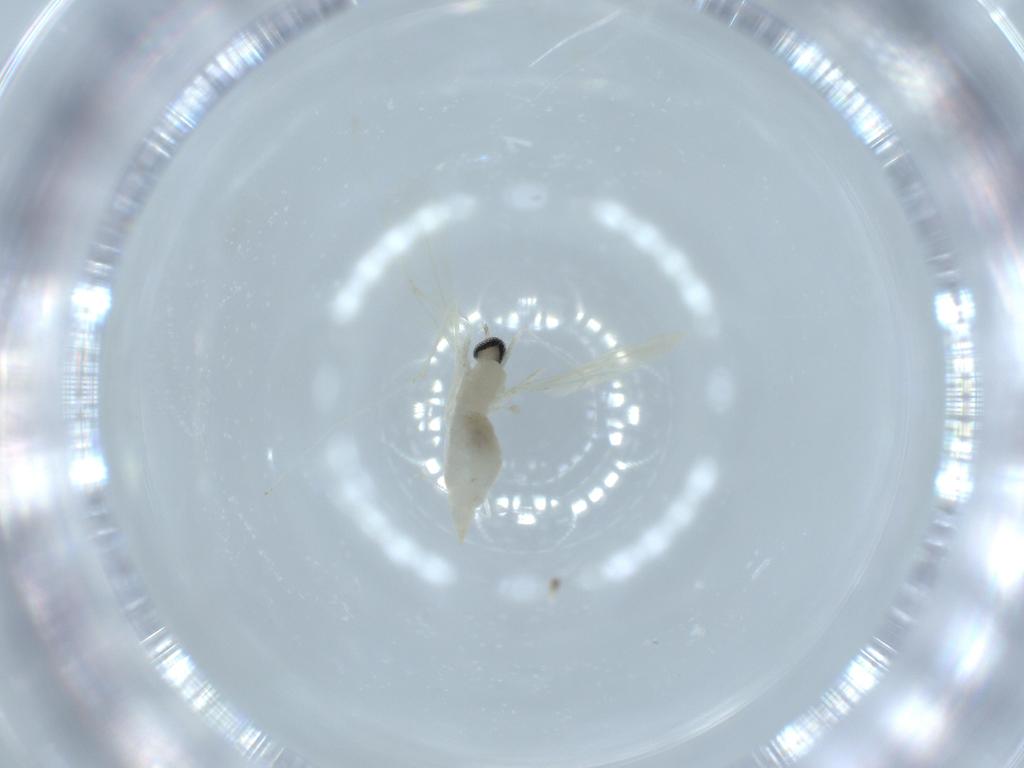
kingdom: Animalia
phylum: Arthropoda
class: Insecta
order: Diptera
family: Cecidomyiidae
